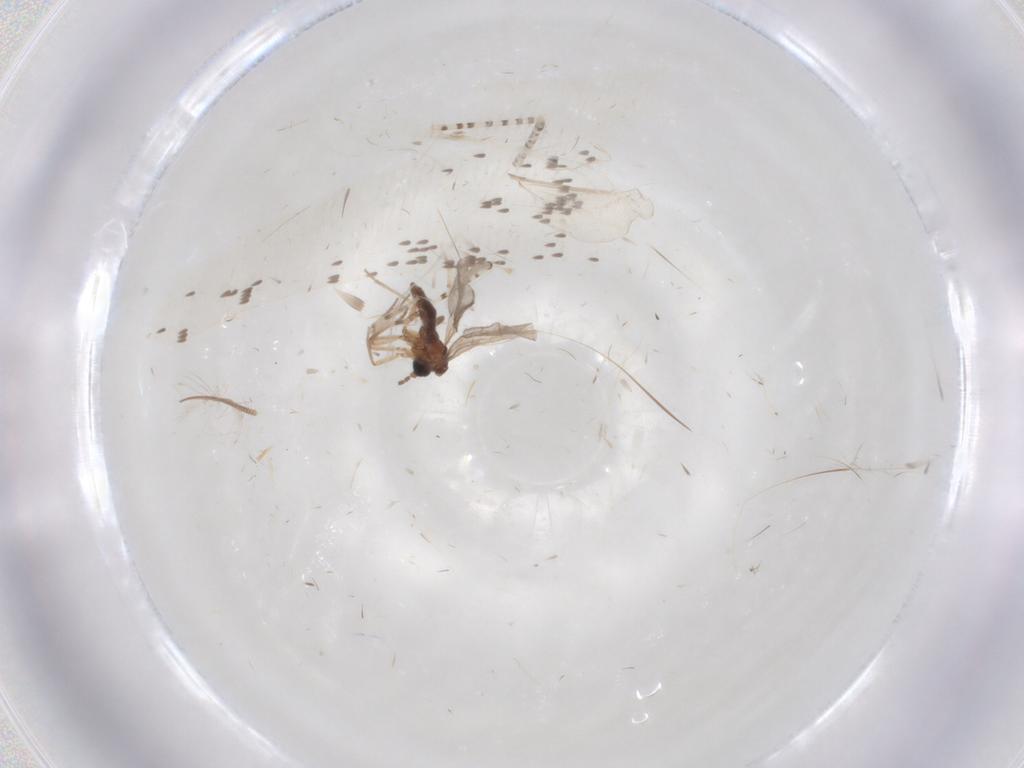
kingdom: Animalia
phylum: Arthropoda
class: Insecta
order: Diptera
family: Sciaridae
